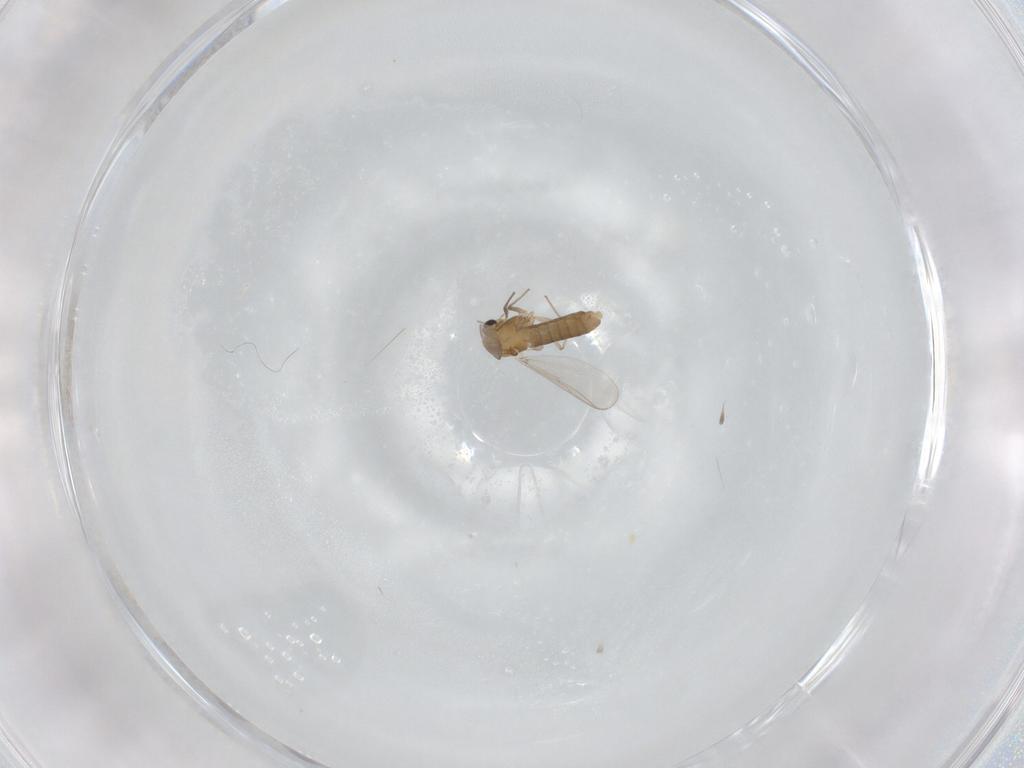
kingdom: Animalia
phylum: Arthropoda
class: Insecta
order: Diptera
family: Chironomidae
